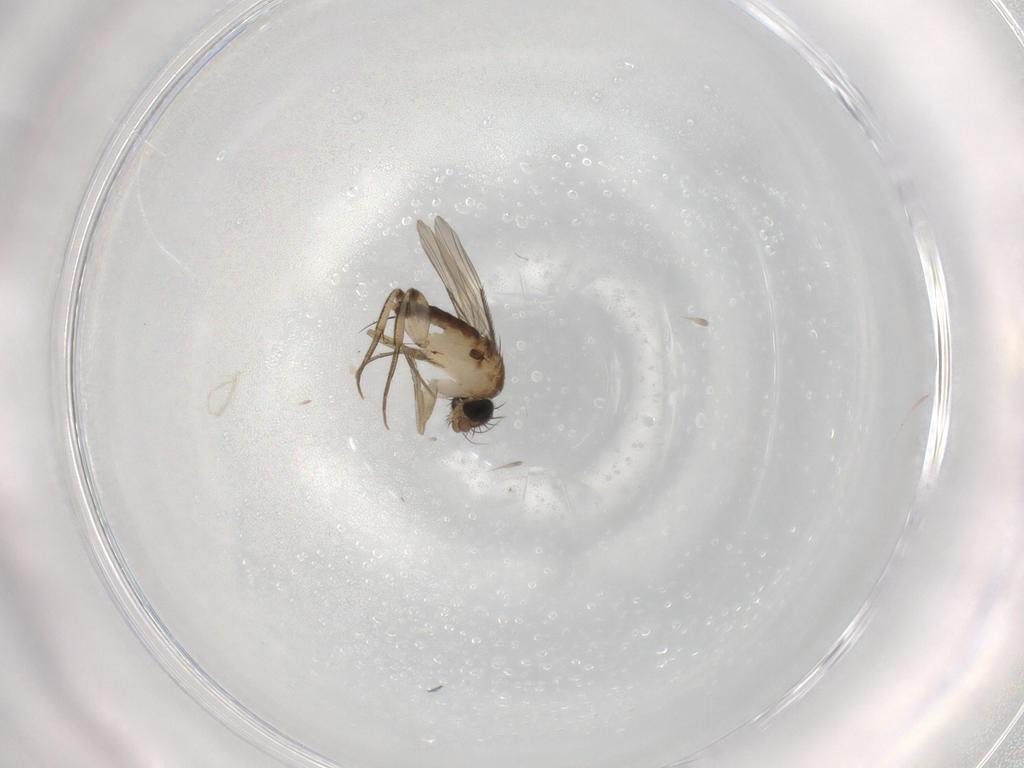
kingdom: Animalia
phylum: Arthropoda
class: Insecta
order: Diptera
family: Phoridae
